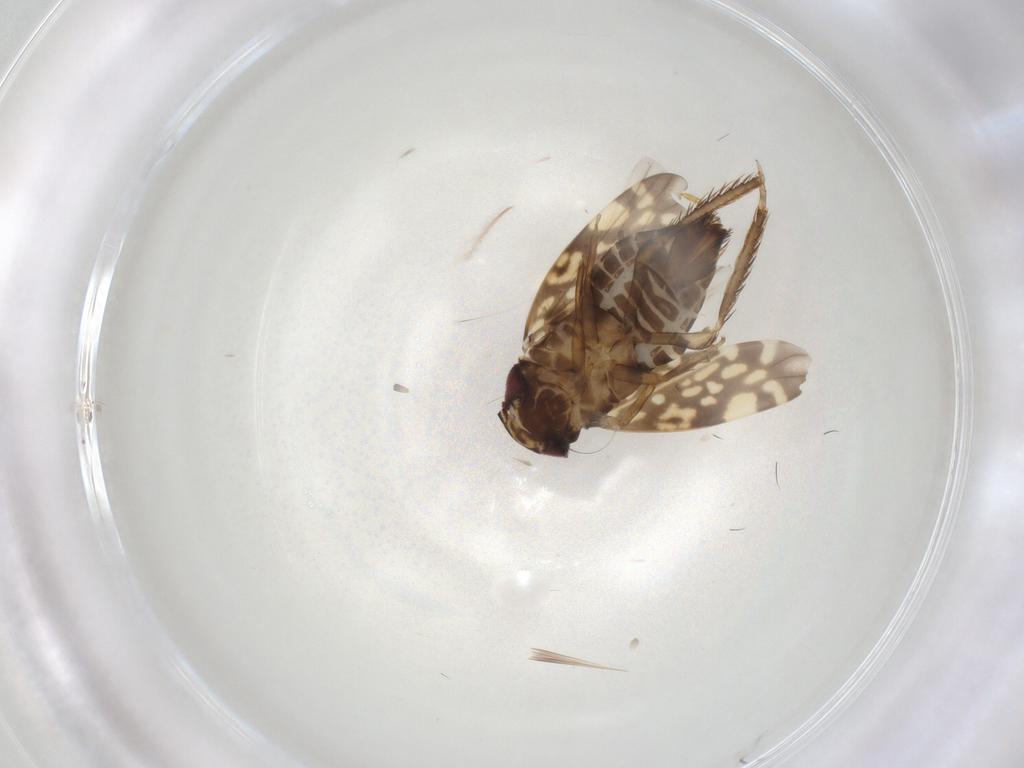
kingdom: Animalia
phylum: Arthropoda
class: Insecta
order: Hemiptera
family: Cicadellidae
